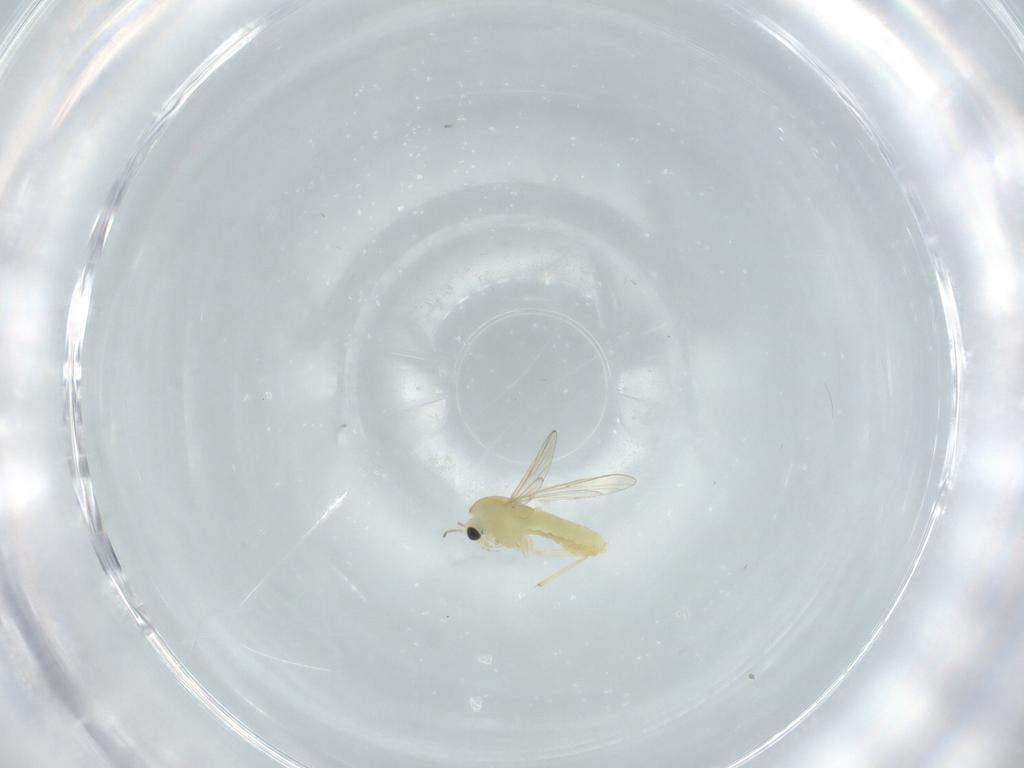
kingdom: Animalia
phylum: Arthropoda
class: Insecta
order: Diptera
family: Chironomidae
